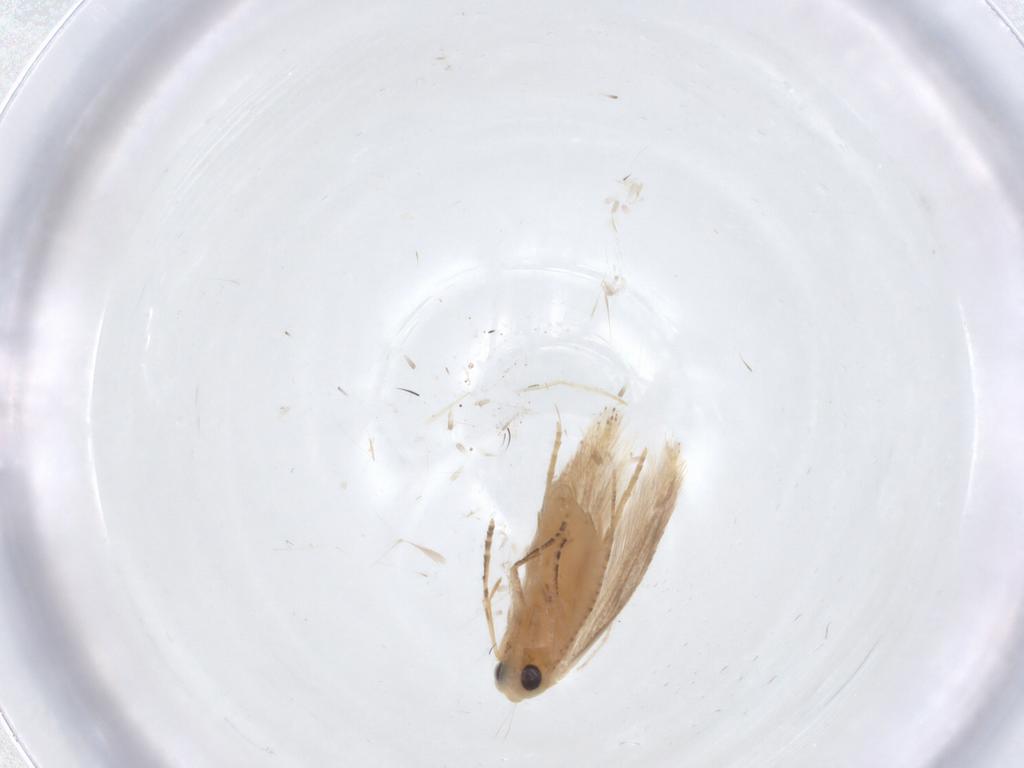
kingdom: Animalia
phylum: Arthropoda
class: Insecta
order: Lepidoptera
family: Bucculatricidae
